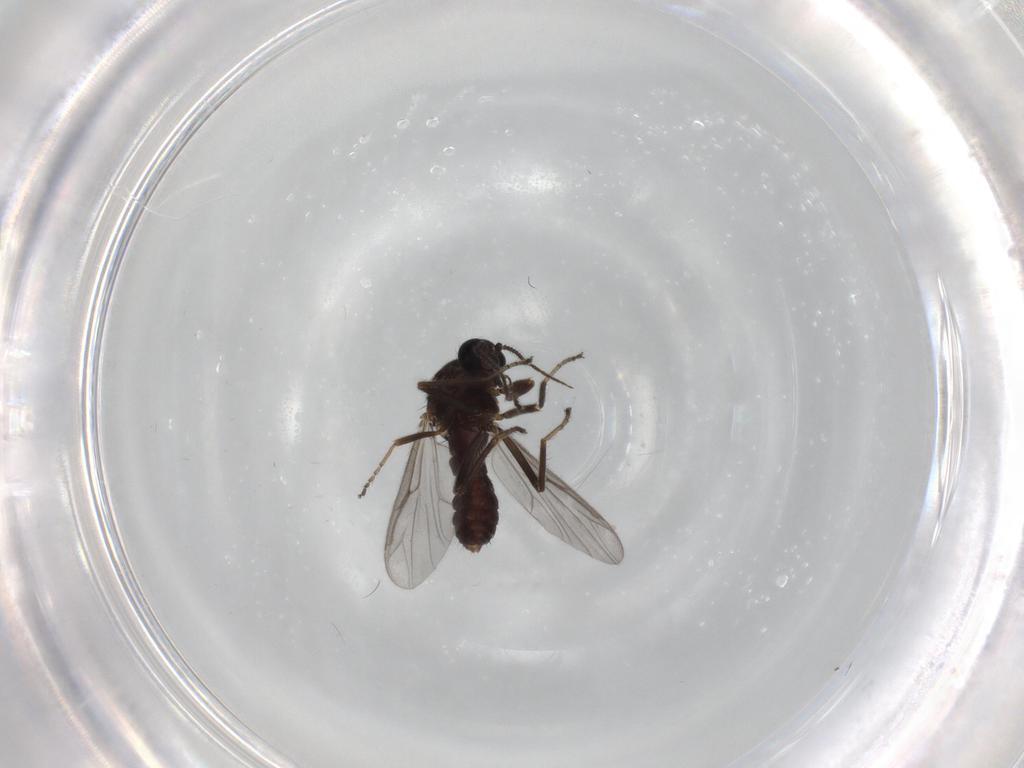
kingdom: Animalia
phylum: Arthropoda
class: Insecta
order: Diptera
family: Ceratopogonidae
